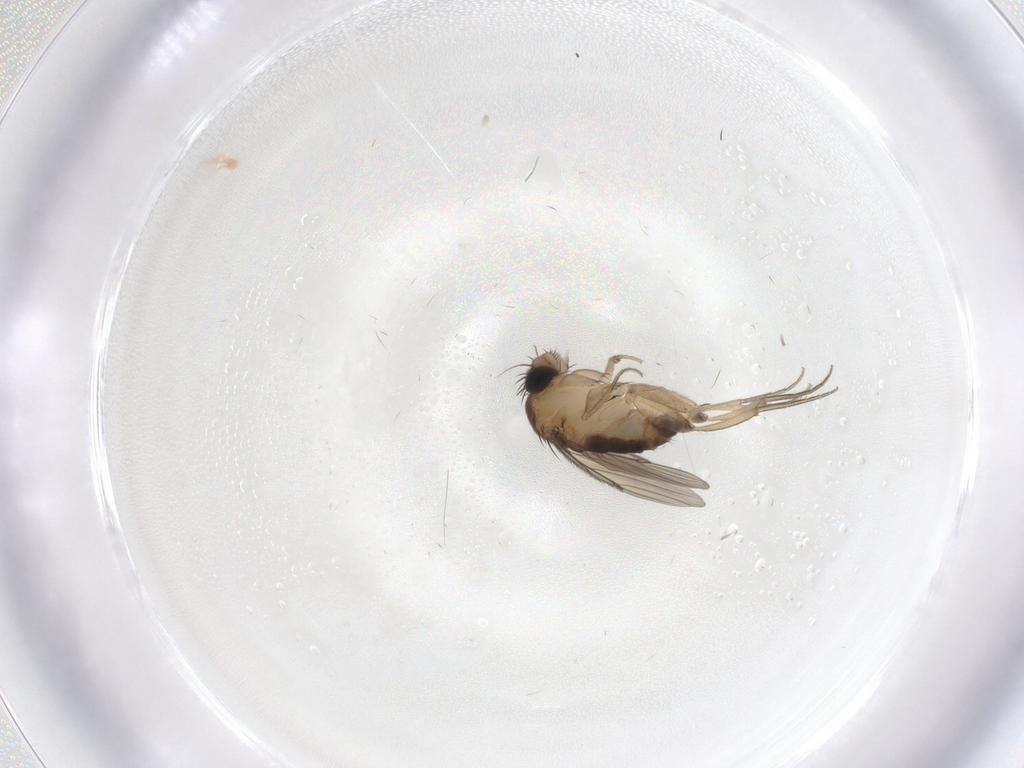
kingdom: Animalia
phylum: Arthropoda
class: Insecta
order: Diptera
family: Phoridae
